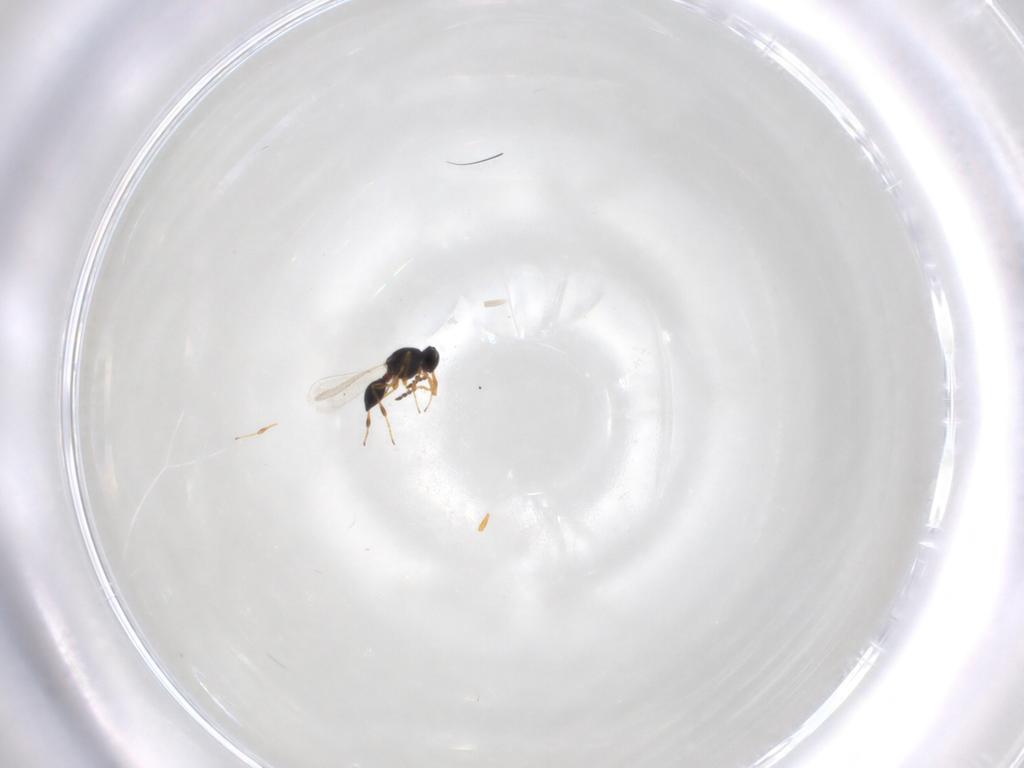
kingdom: Animalia
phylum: Arthropoda
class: Insecta
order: Hymenoptera
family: Platygastridae
